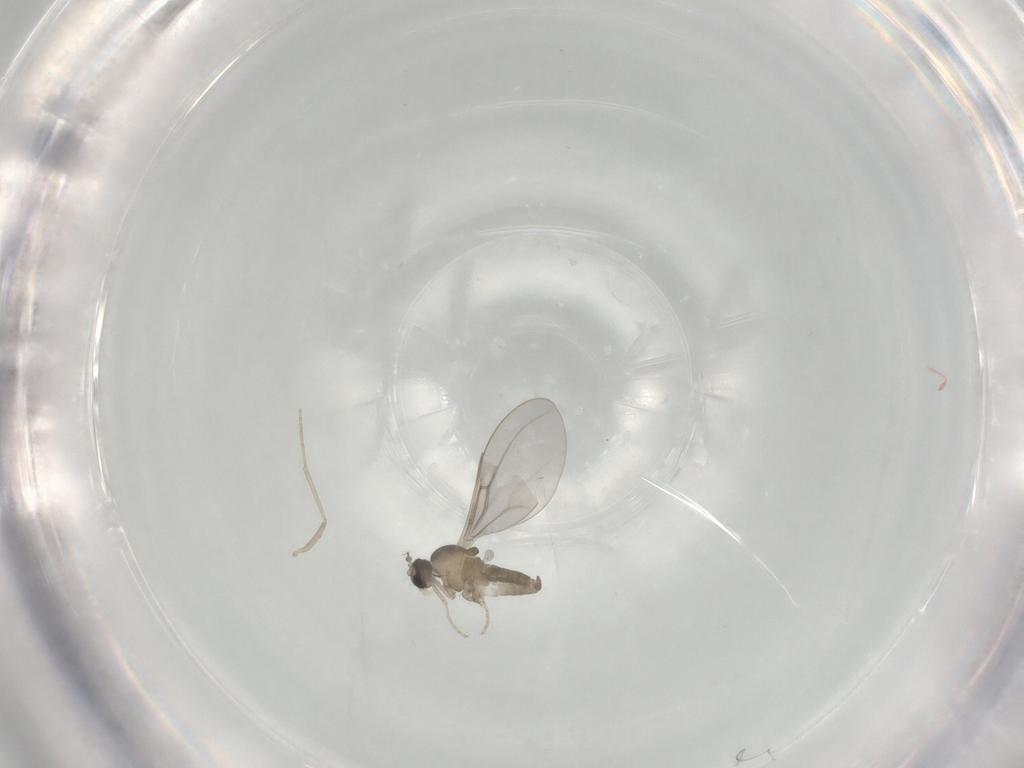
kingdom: Animalia
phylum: Arthropoda
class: Insecta
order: Diptera
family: Cecidomyiidae
